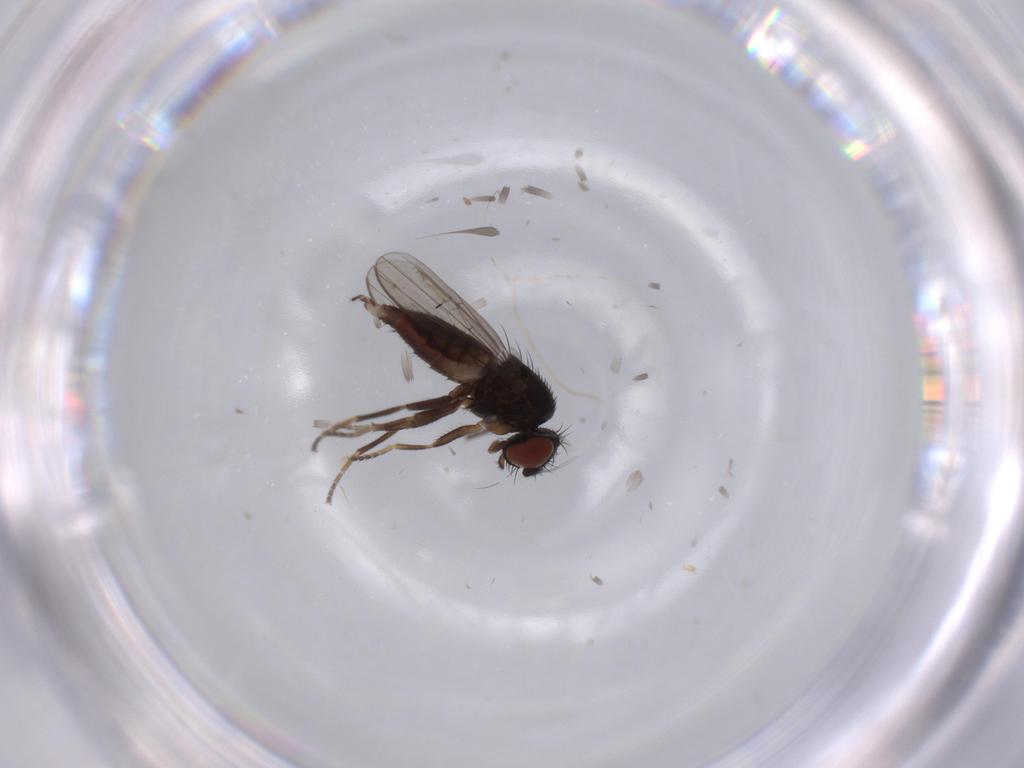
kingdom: Animalia
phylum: Arthropoda
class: Insecta
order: Diptera
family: Milichiidae
